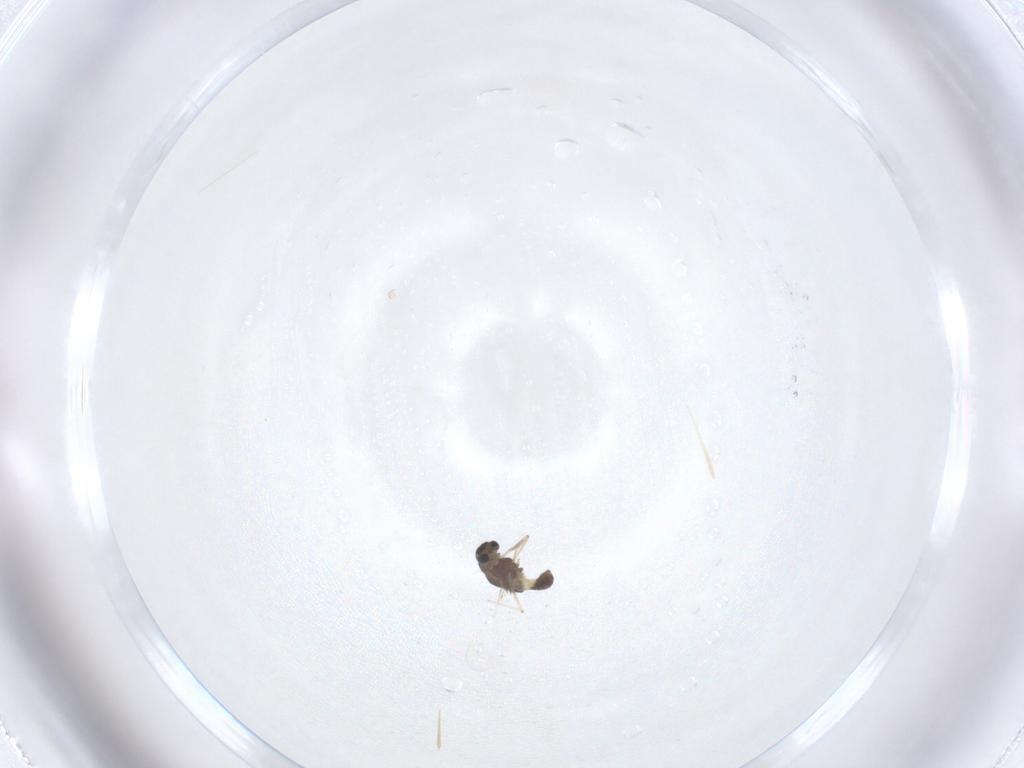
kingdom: Animalia
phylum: Arthropoda
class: Insecta
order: Diptera
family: Chironomidae
